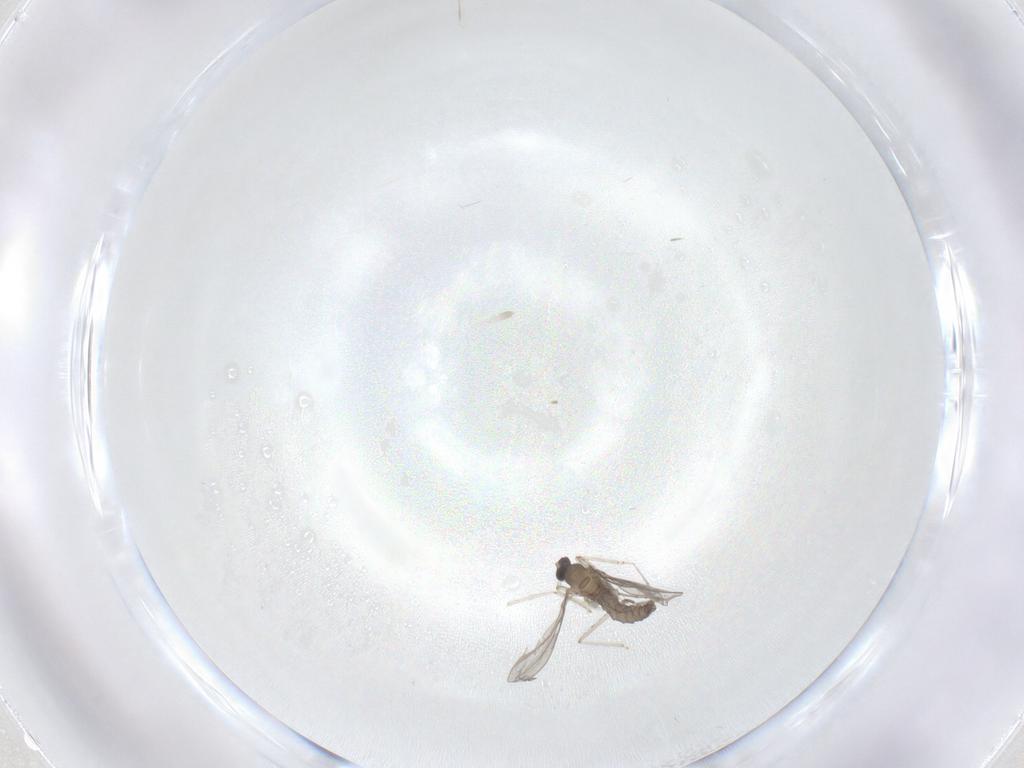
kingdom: Animalia
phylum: Arthropoda
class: Insecta
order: Diptera
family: Cecidomyiidae
